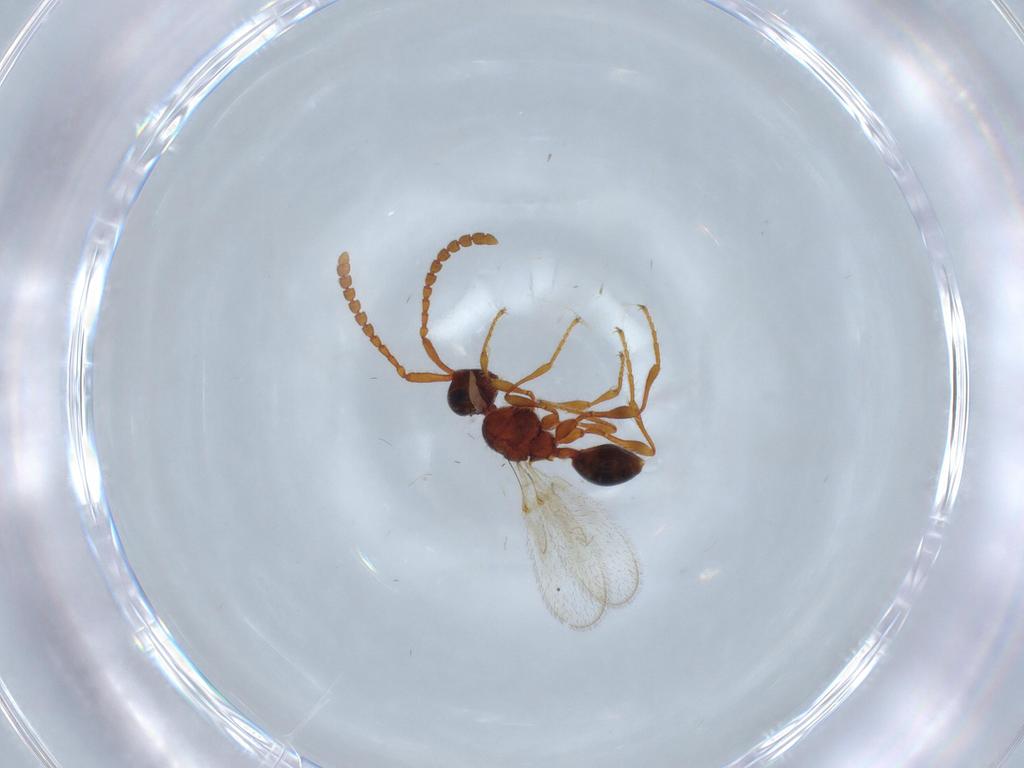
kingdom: Animalia
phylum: Arthropoda
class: Insecta
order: Hymenoptera
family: Diapriidae
